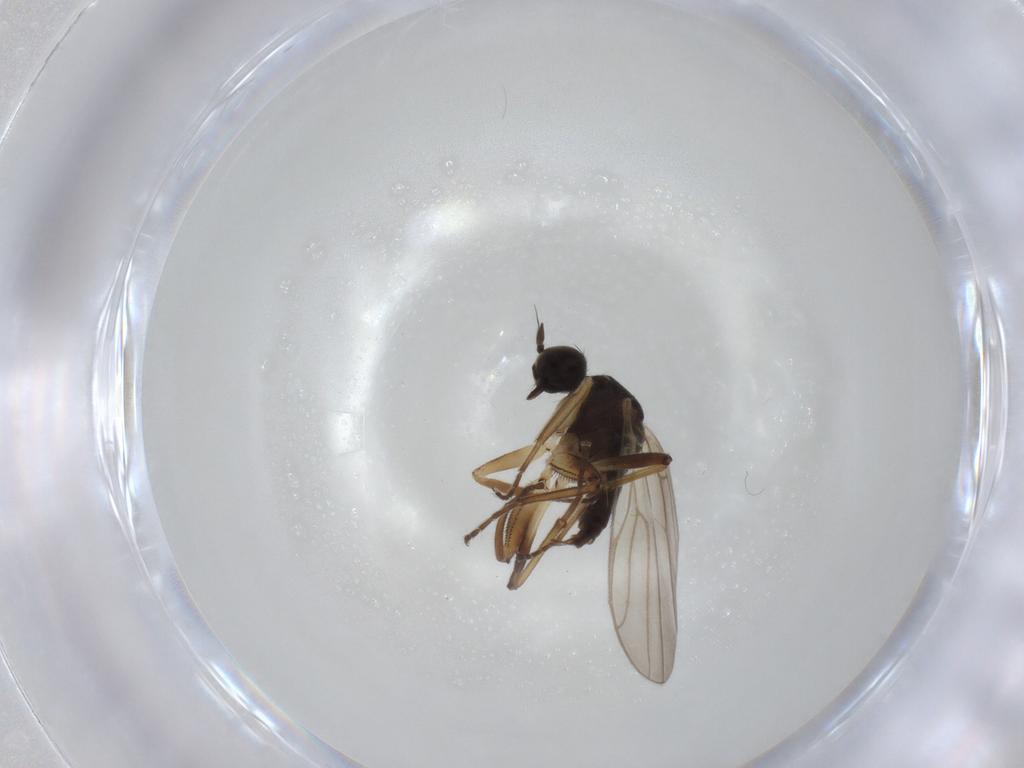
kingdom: Animalia
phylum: Arthropoda
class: Insecta
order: Diptera
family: Hybotidae
